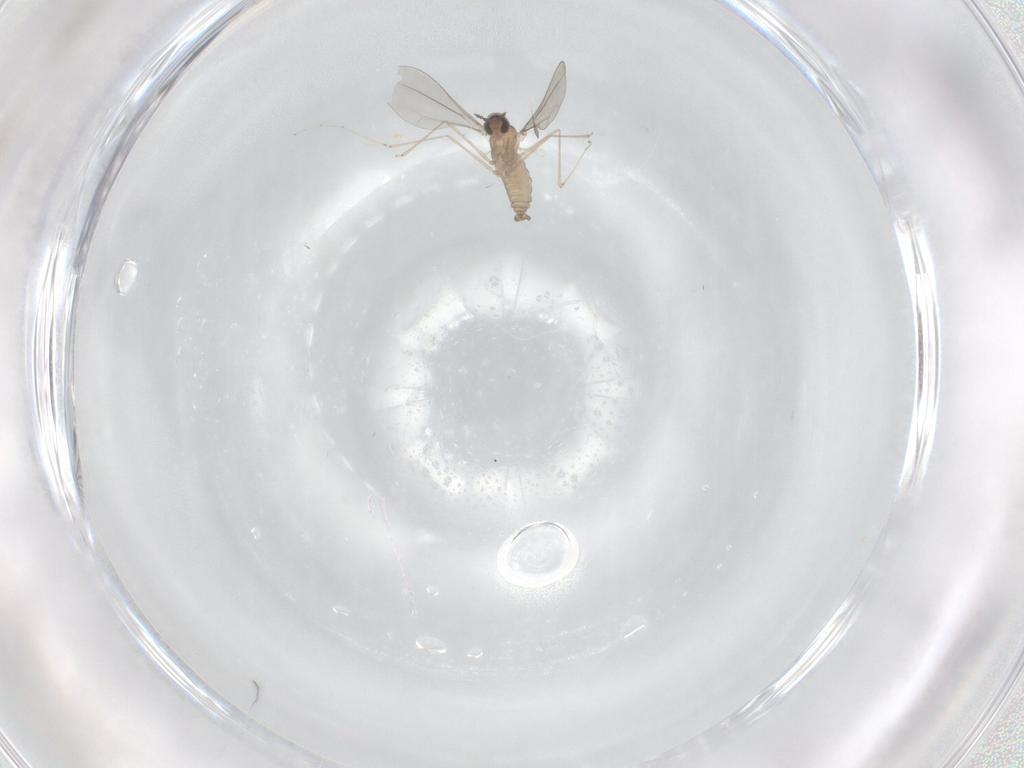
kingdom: Animalia
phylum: Arthropoda
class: Insecta
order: Diptera
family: Cecidomyiidae
